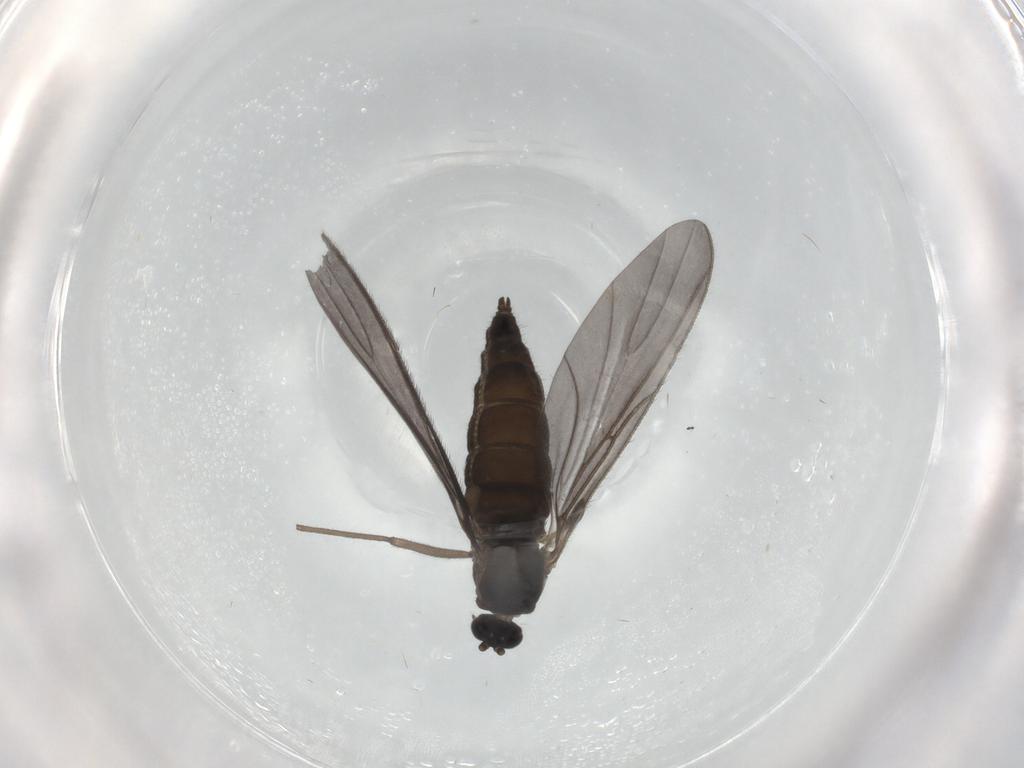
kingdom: Animalia
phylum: Arthropoda
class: Insecta
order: Diptera
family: Sciaridae
